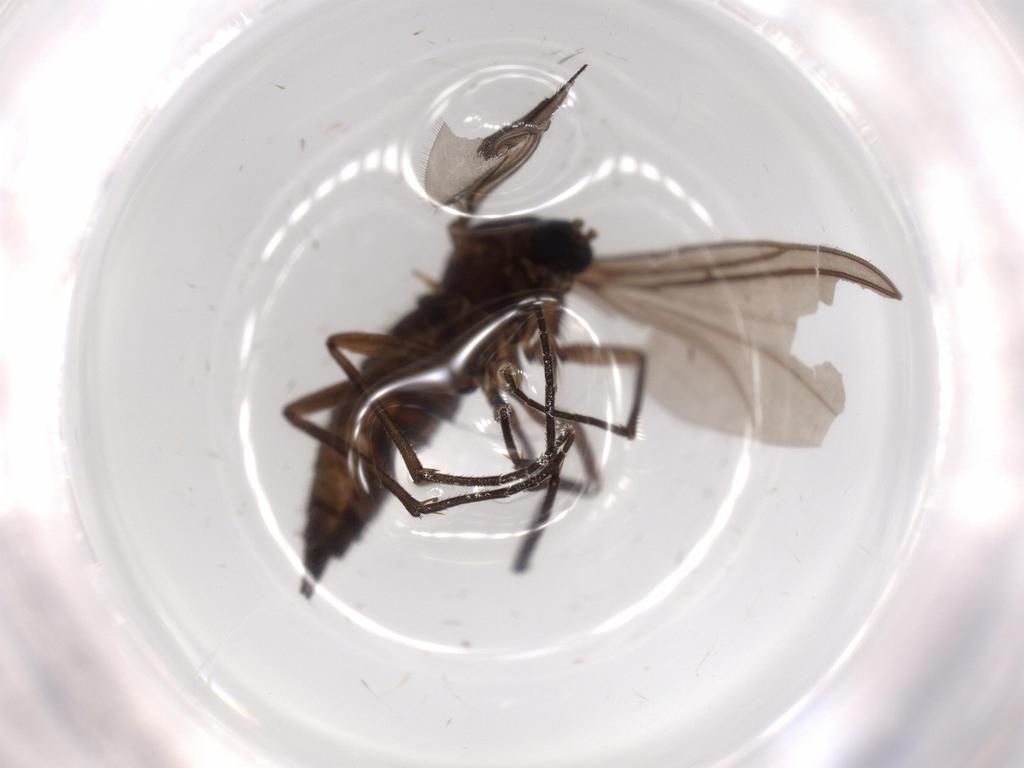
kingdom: Animalia
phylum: Arthropoda
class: Insecta
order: Diptera
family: Sciaridae
